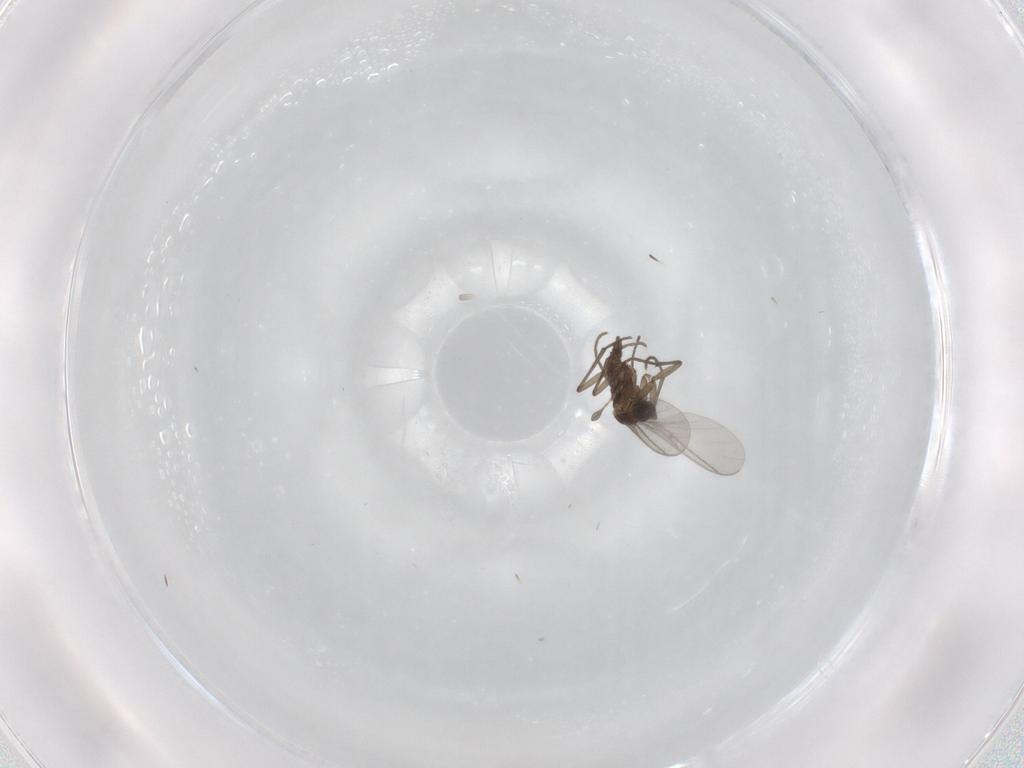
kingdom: Animalia
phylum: Arthropoda
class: Insecta
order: Diptera
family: Sciaridae
